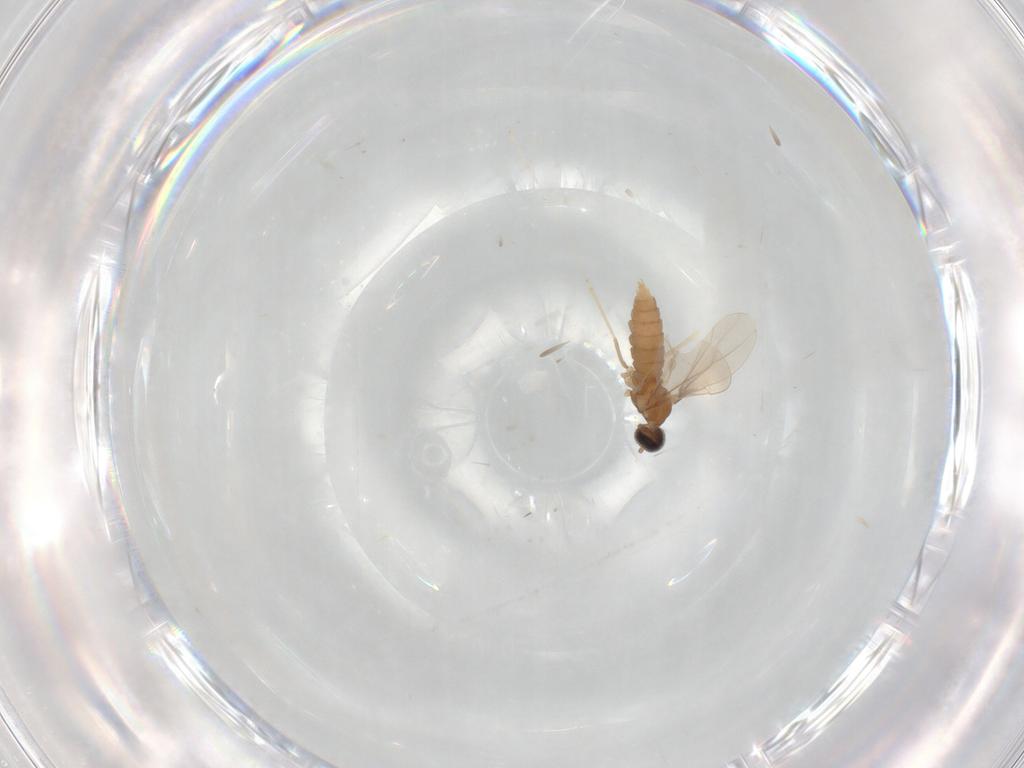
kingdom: Animalia
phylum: Arthropoda
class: Insecta
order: Diptera
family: Cecidomyiidae
